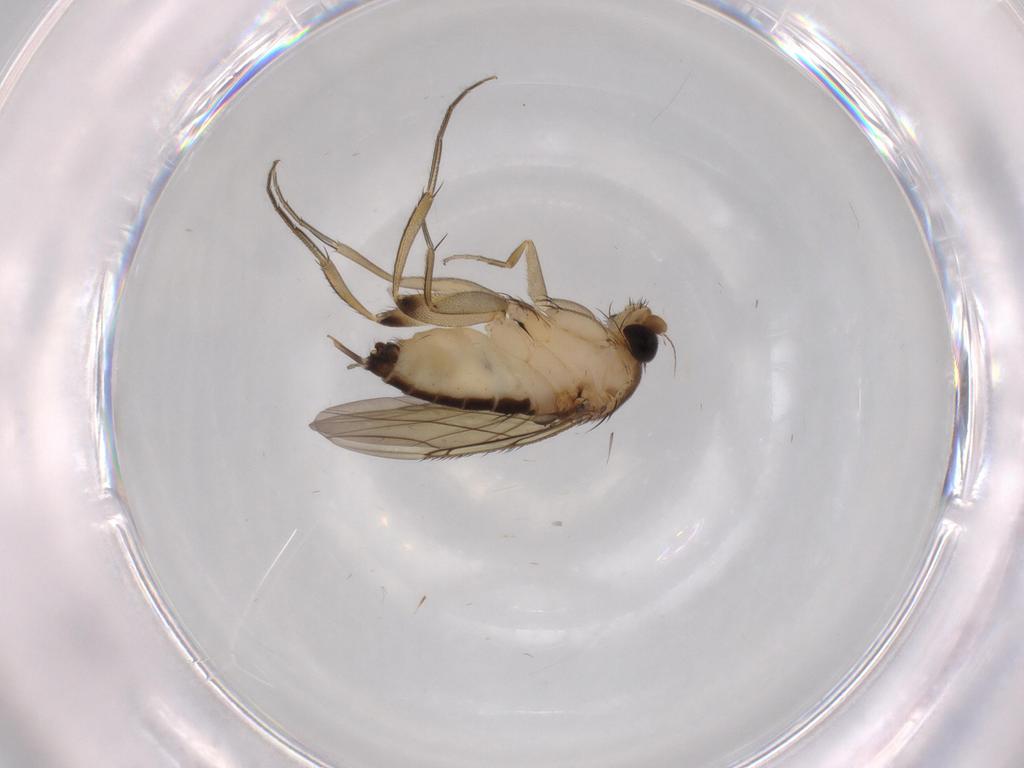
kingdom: Animalia
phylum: Arthropoda
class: Insecta
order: Diptera
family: Phoridae
